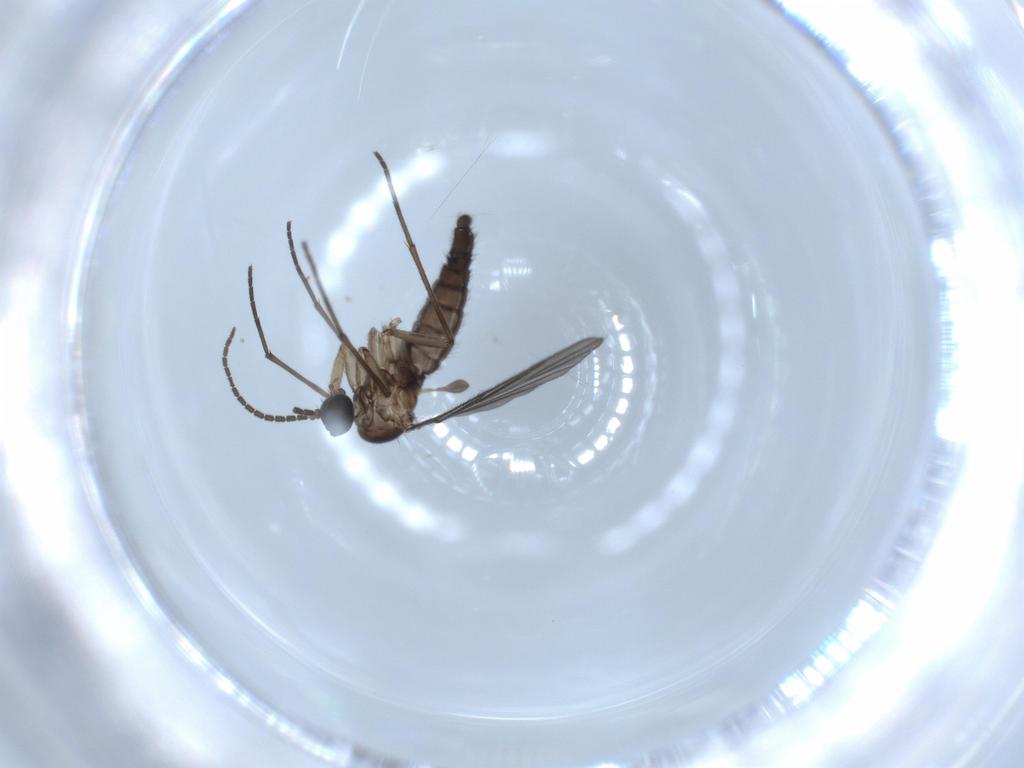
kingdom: Animalia
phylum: Arthropoda
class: Insecta
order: Diptera
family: Sciaridae
